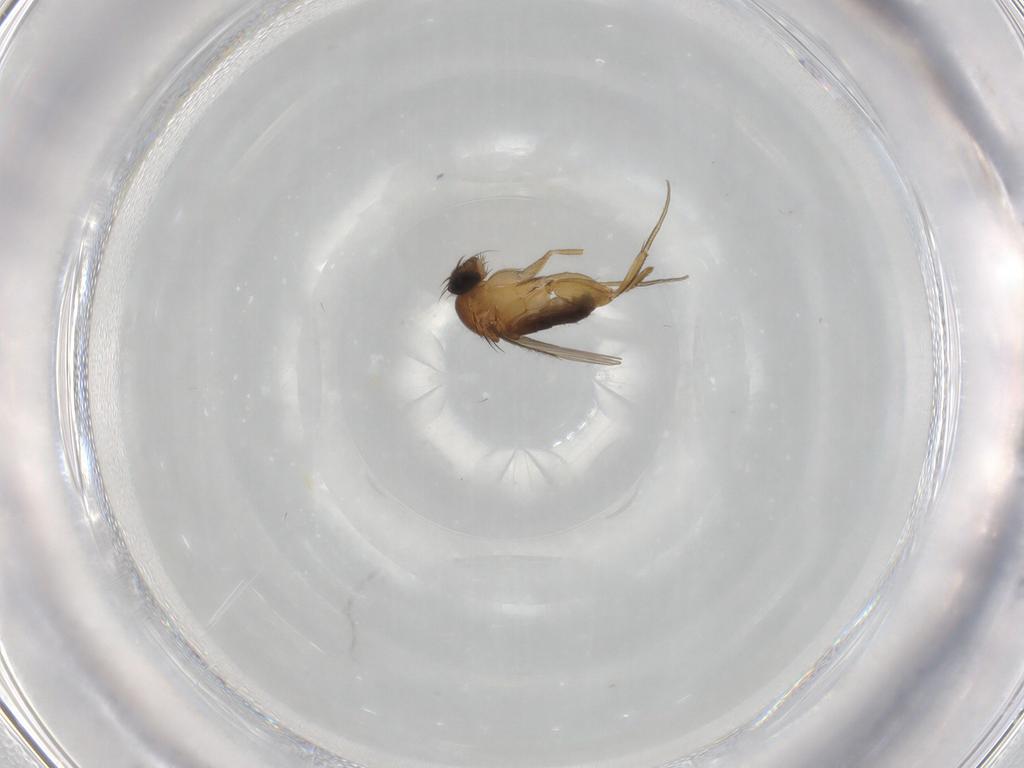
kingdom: Animalia
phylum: Arthropoda
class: Insecta
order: Diptera
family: Phoridae
